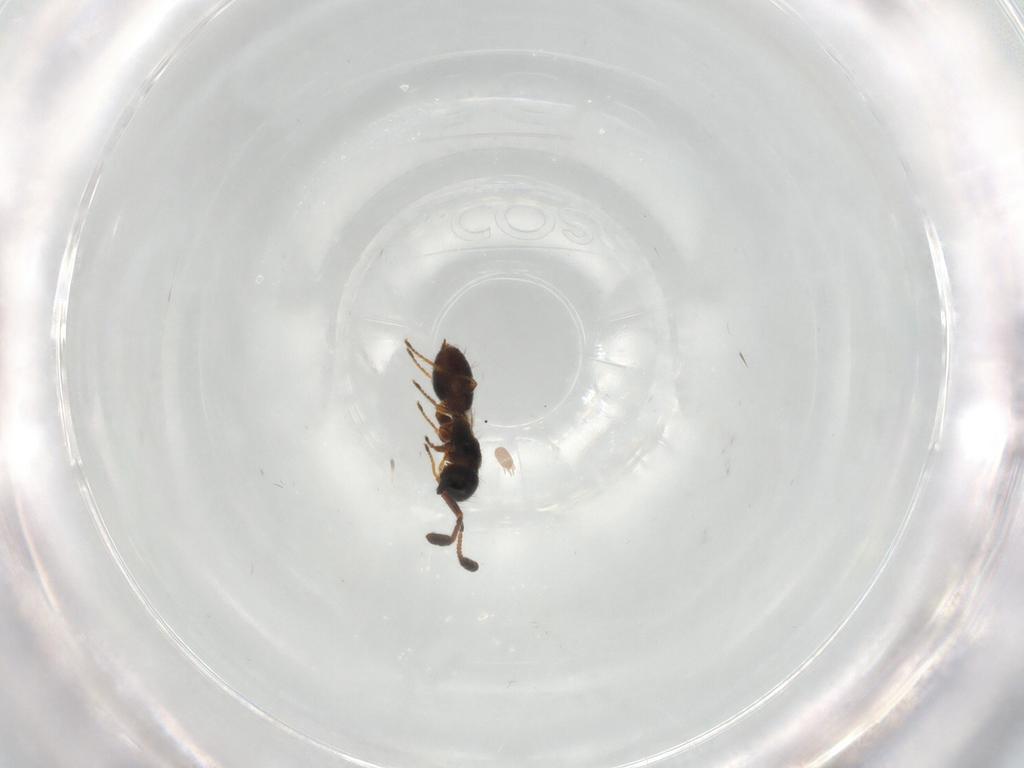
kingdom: Animalia
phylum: Arthropoda
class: Insecta
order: Hymenoptera
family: Diapriidae
